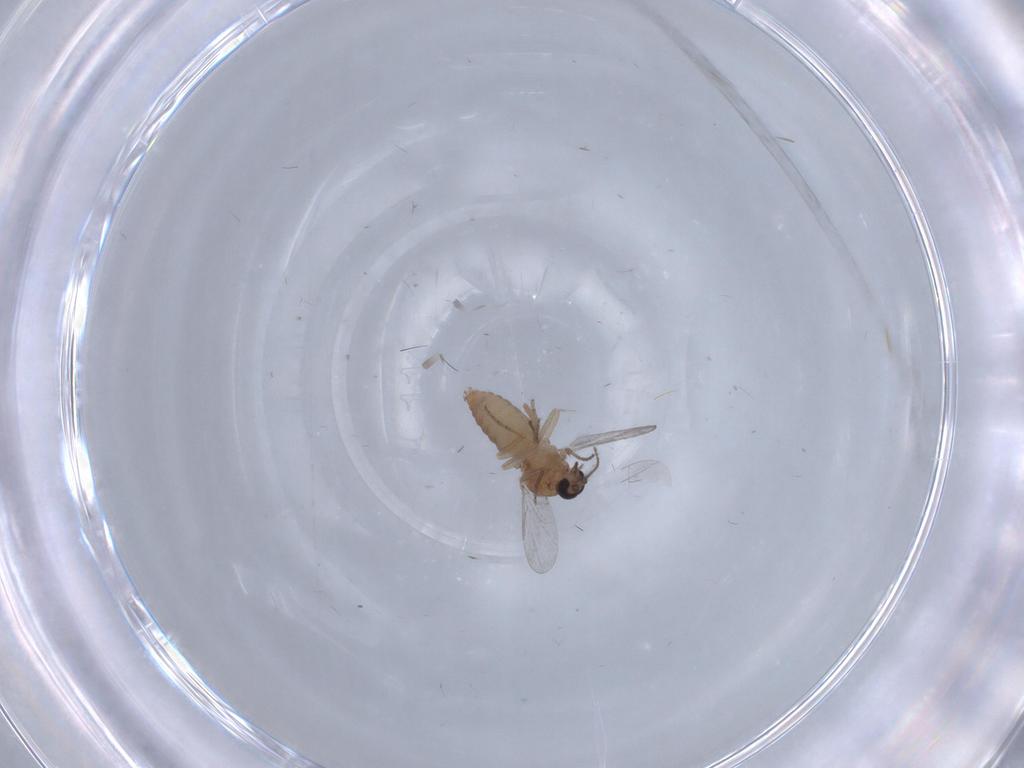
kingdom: Animalia
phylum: Arthropoda
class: Insecta
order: Diptera
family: Ceratopogonidae
